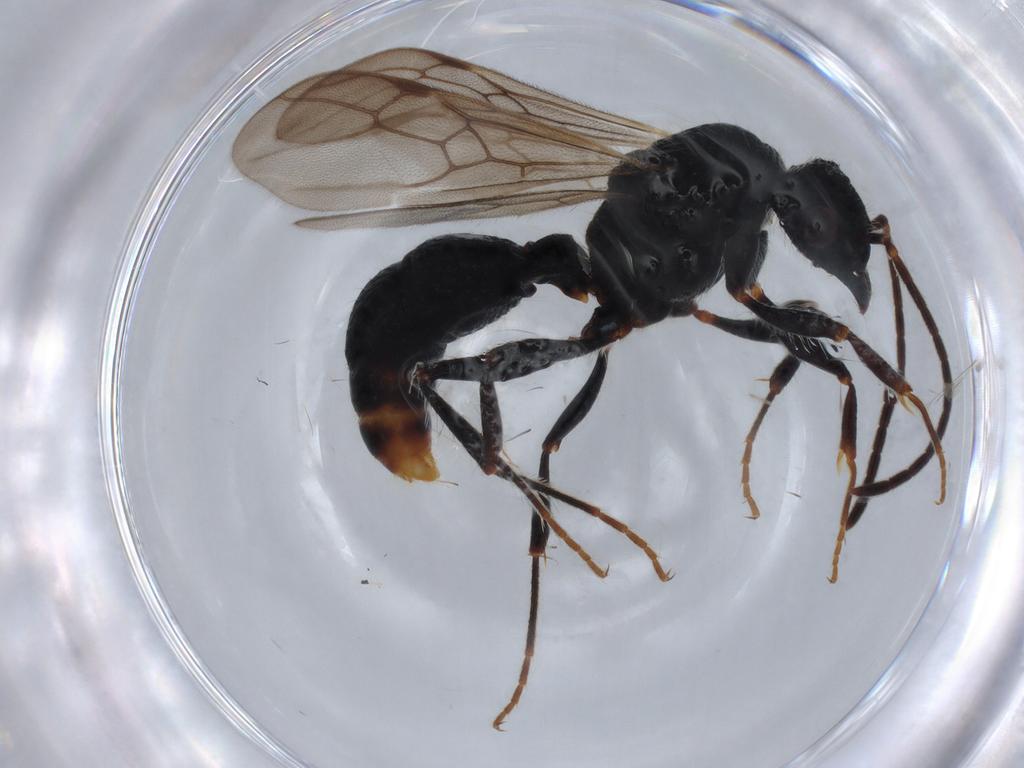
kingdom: Animalia
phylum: Arthropoda
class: Insecta
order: Hymenoptera
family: Formicidae
